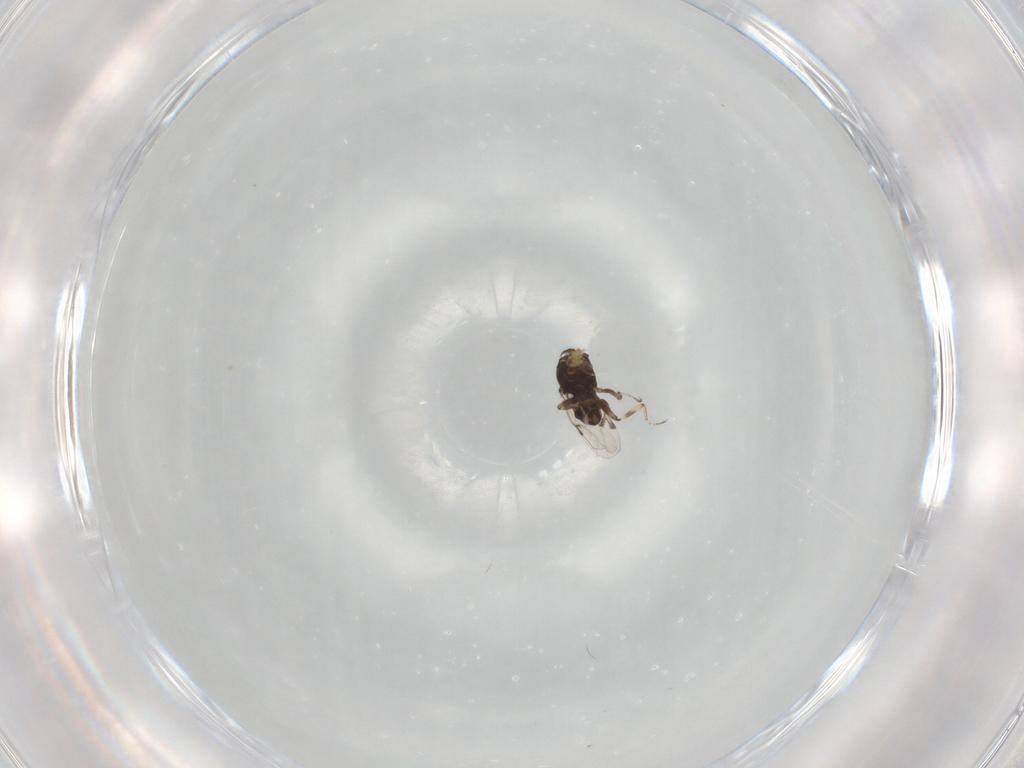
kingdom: Animalia
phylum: Arthropoda
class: Insecta
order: Diptera
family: Ceratopogonidae
